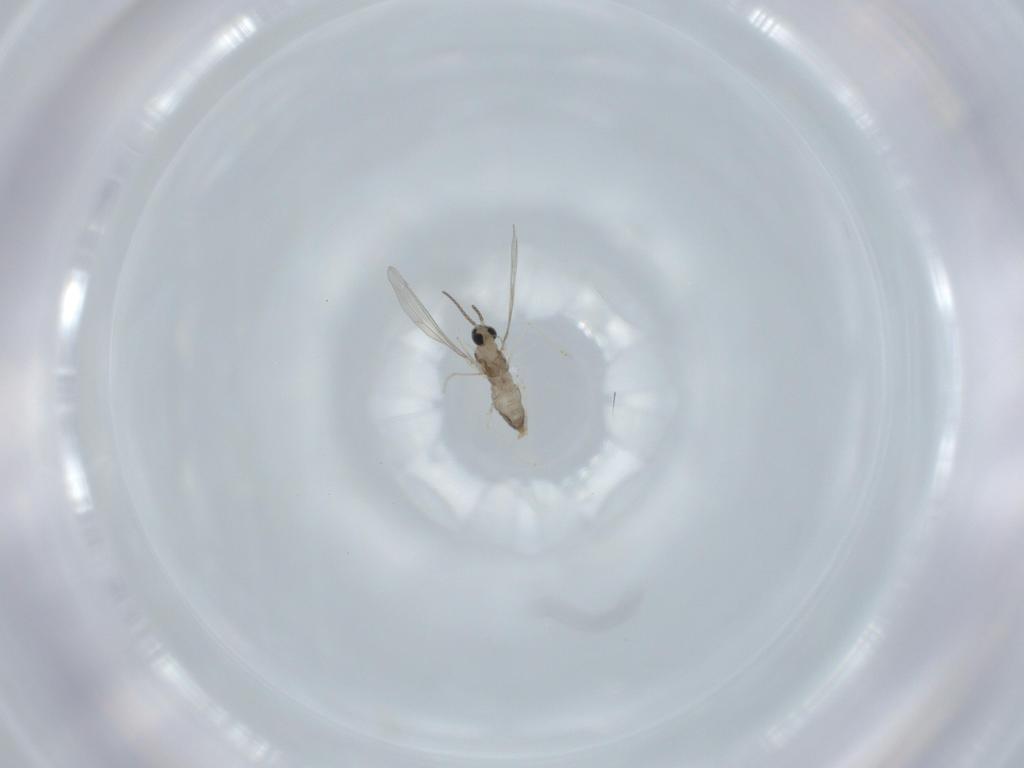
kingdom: Animalia
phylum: Arthropoda
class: Insecta
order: Diptera
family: Cecidomyiidae
